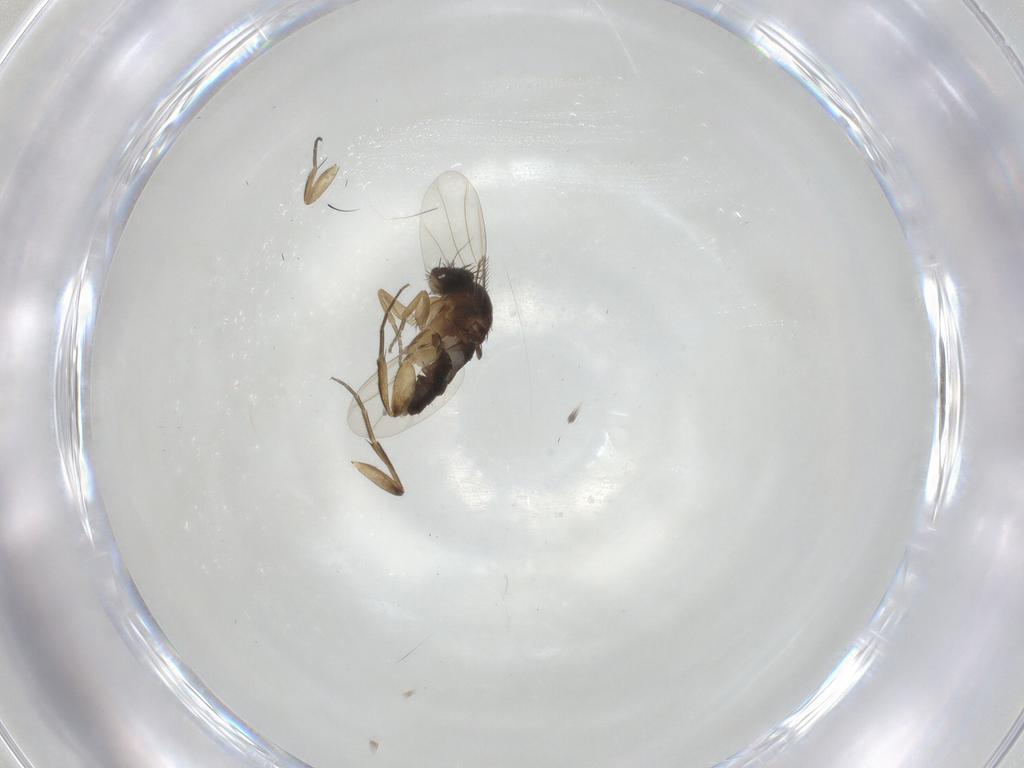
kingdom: Animalia
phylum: Arthropoda
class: Insecta
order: Diptera
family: Phoridae
